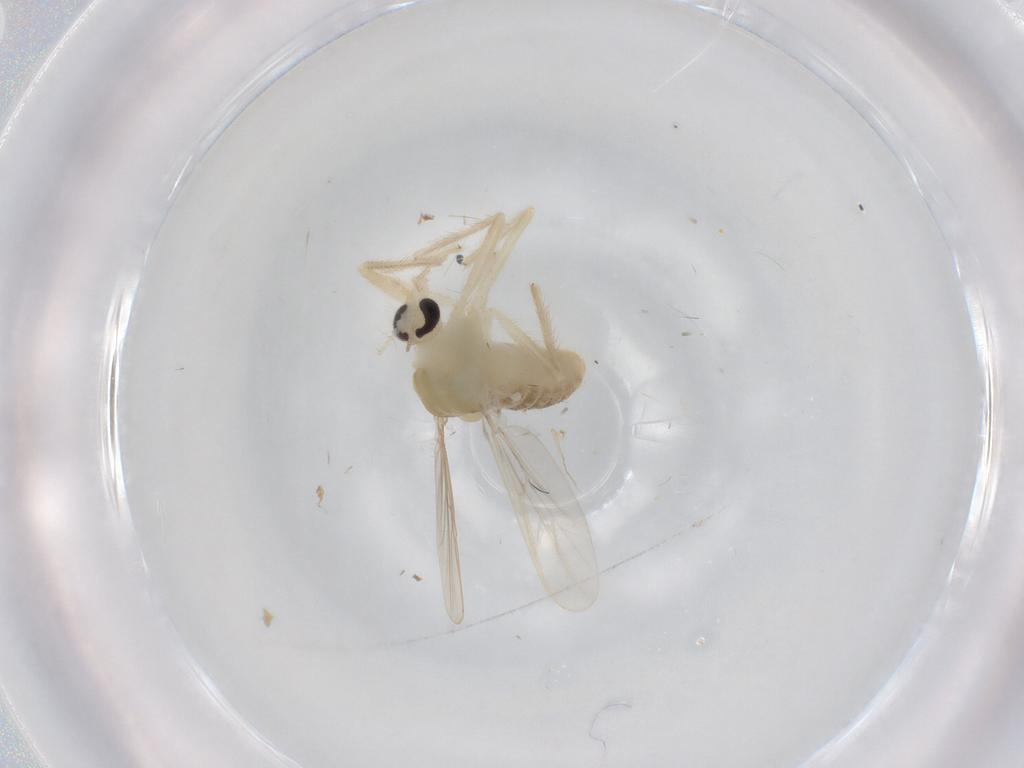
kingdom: Animalia
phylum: Arthropoda
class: Insecta
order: Diptera
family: Chironomidae
